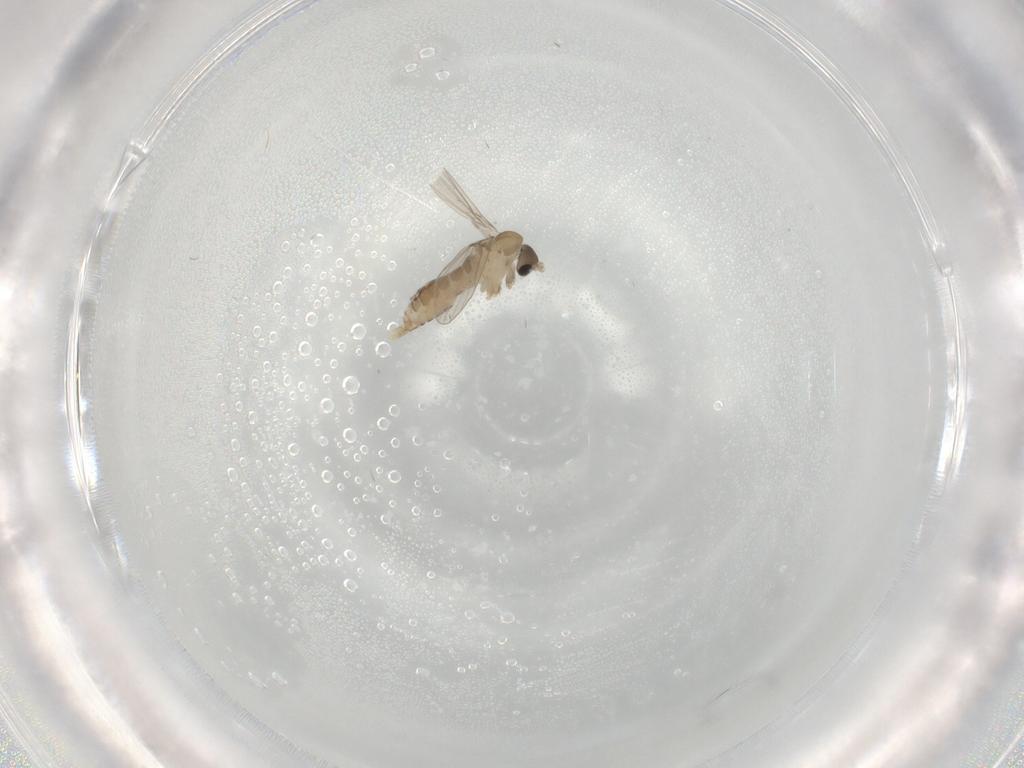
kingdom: Animalia
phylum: Arthropoda
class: Insecta
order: Diptera
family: Psychodidae
